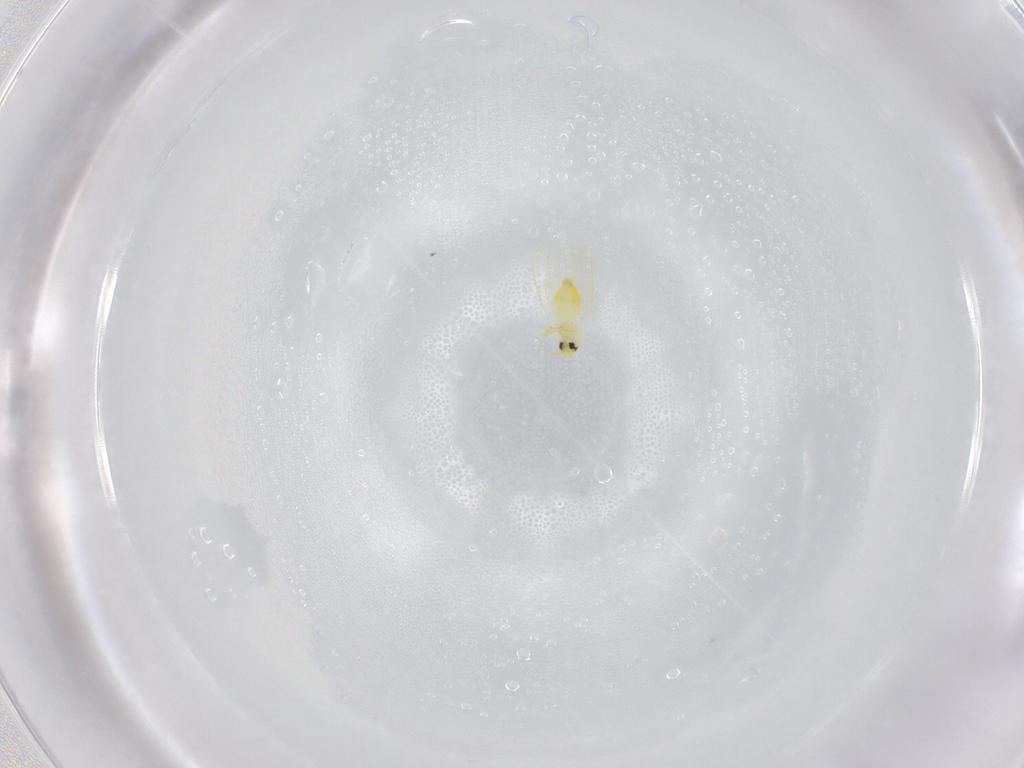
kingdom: Animalia
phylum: Arthropoda
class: Insecta
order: Hemiptera
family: Aleyrodidae
